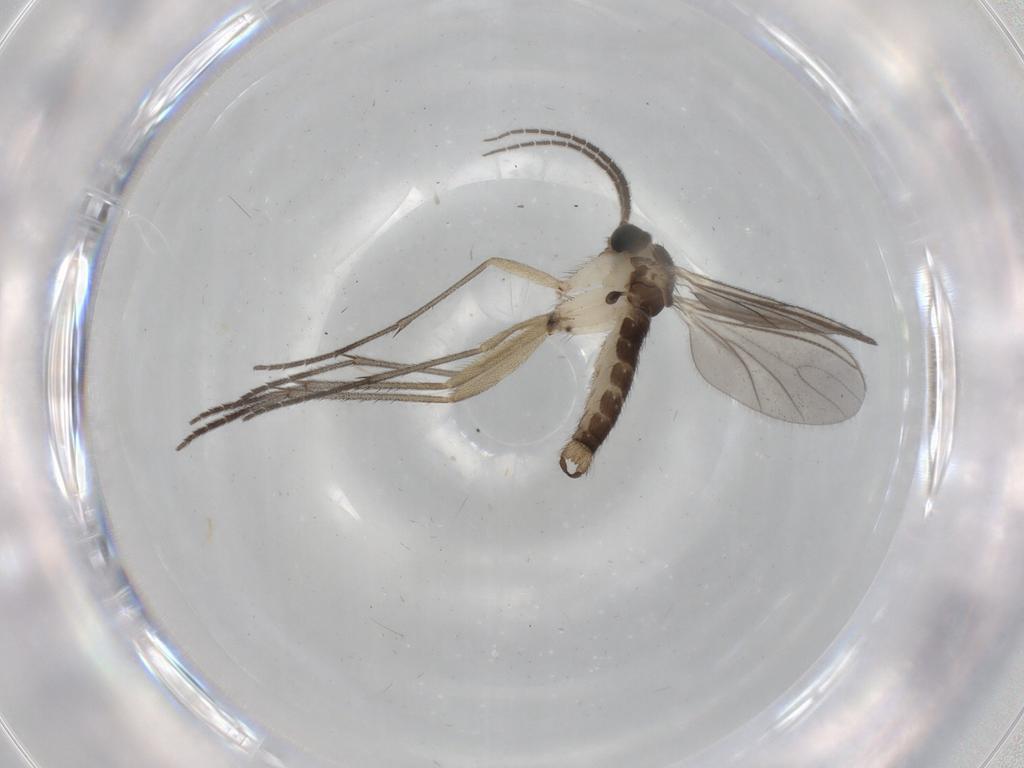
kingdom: Animalia
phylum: Arthropoda
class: Insecta
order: Diptera
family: Sciaridae
